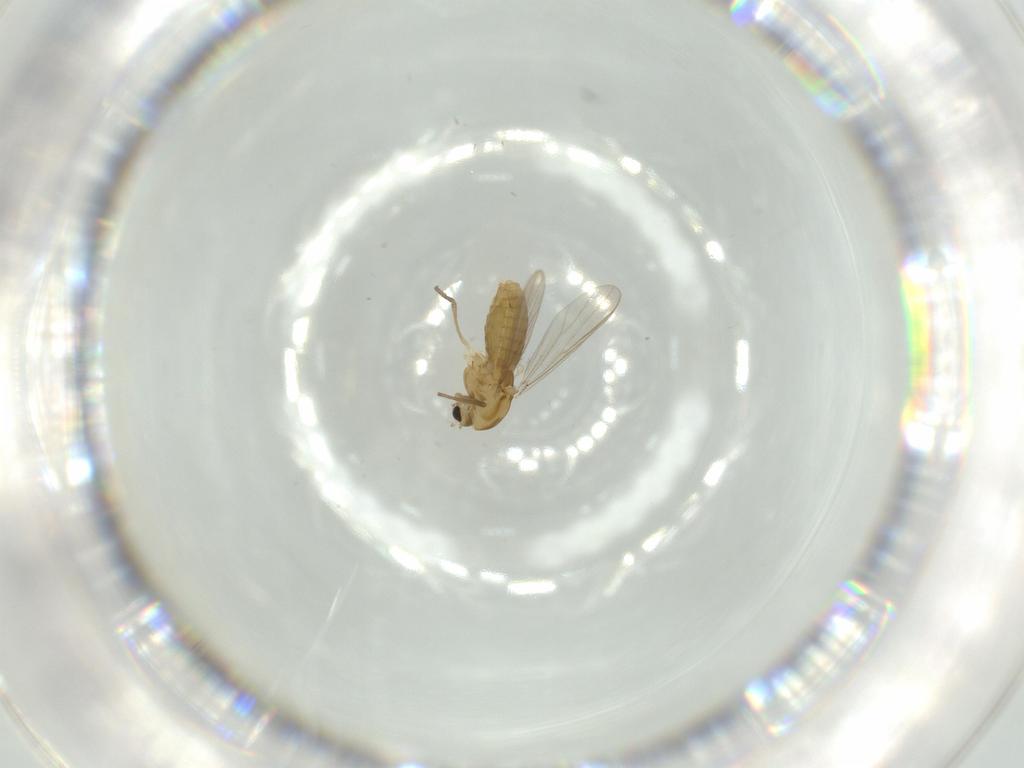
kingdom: Animalia
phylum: Arthropoda
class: Insecta
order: Diptera
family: Chironomidae
